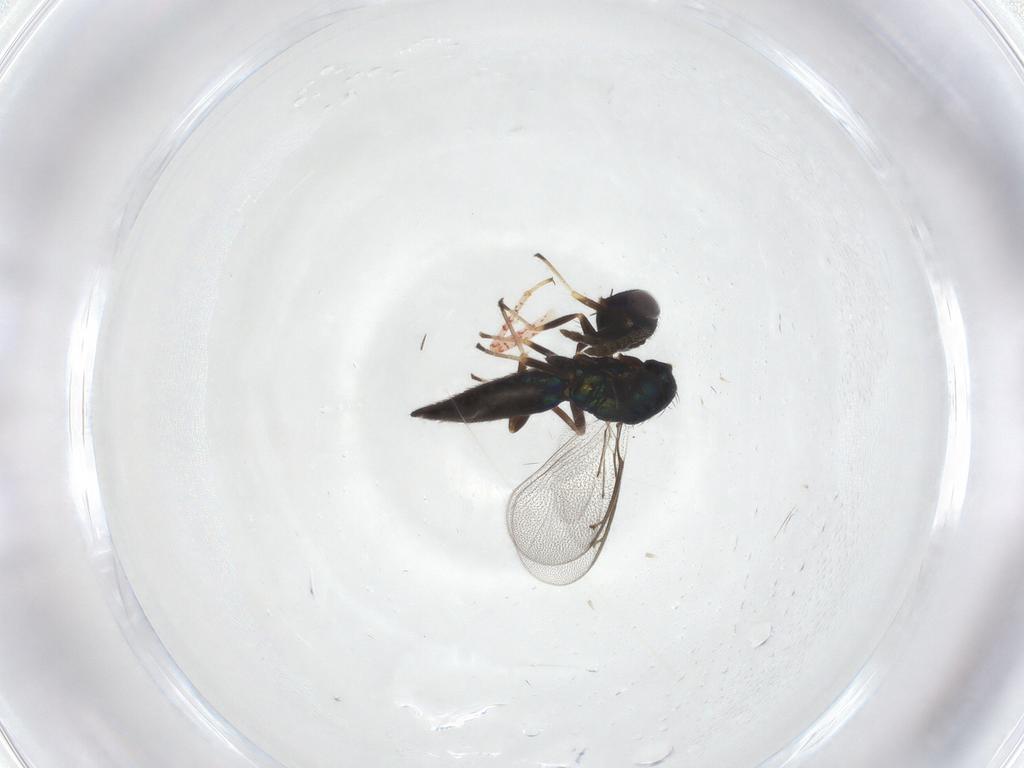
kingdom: Animalia
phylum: Arthropoda
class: Insecta
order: Hymenoptera
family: Eulophidae
